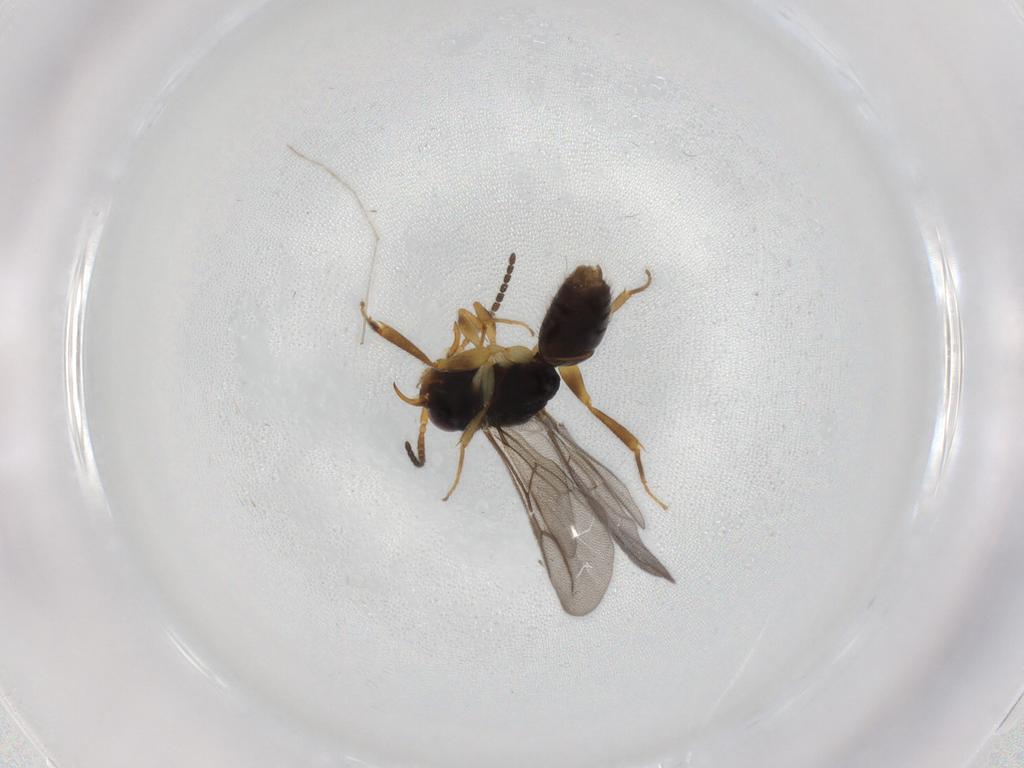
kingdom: Animalia
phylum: Arthropoda
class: Insecta
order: Hymenoptera
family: Bethylidae
